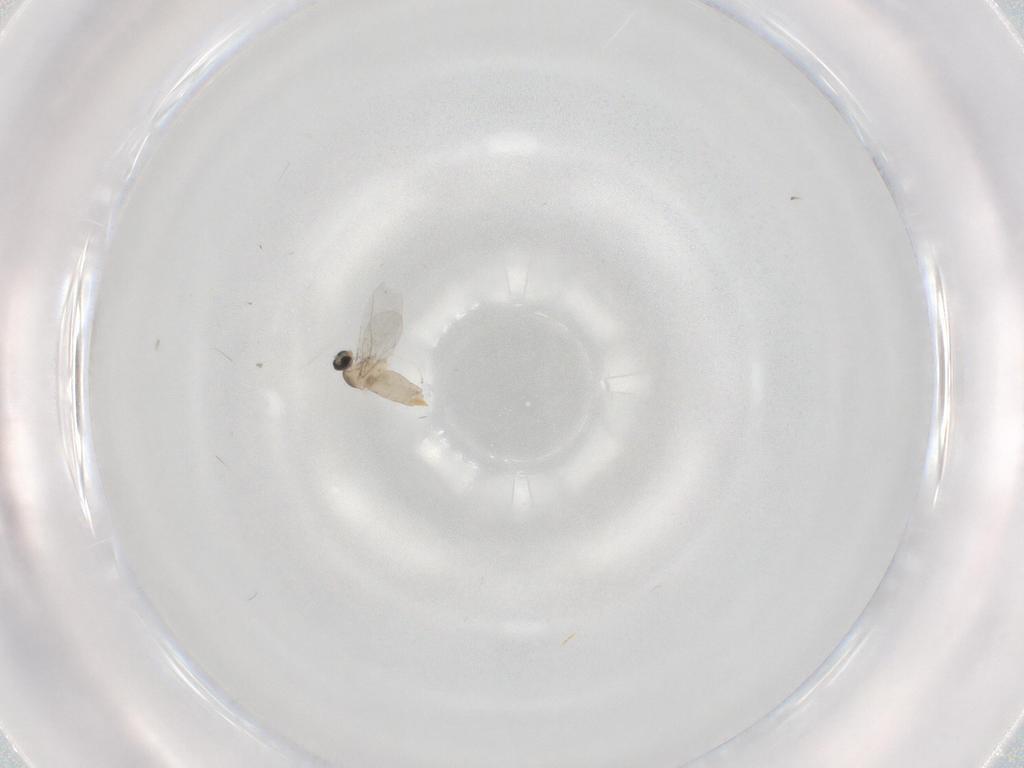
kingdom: Animalia
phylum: Arthropoda
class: Insecta
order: Diptera
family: Cecidomyiidae
